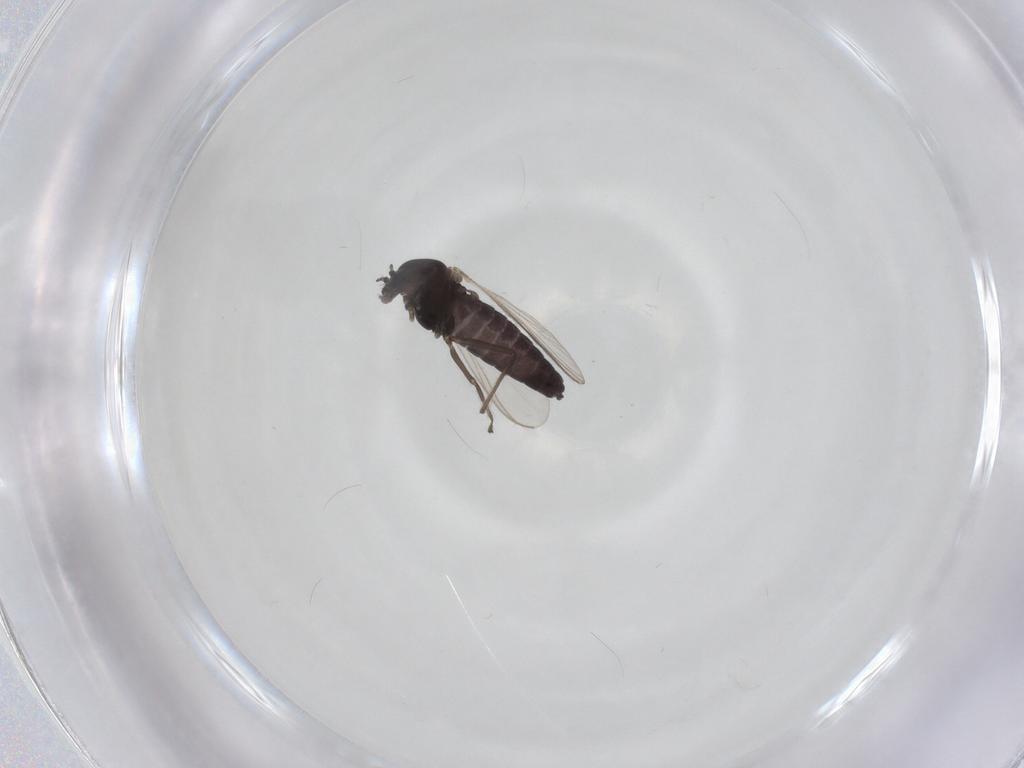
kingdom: Animalia
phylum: Arthropoda
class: Insecta
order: Diptera
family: Chironomidae
